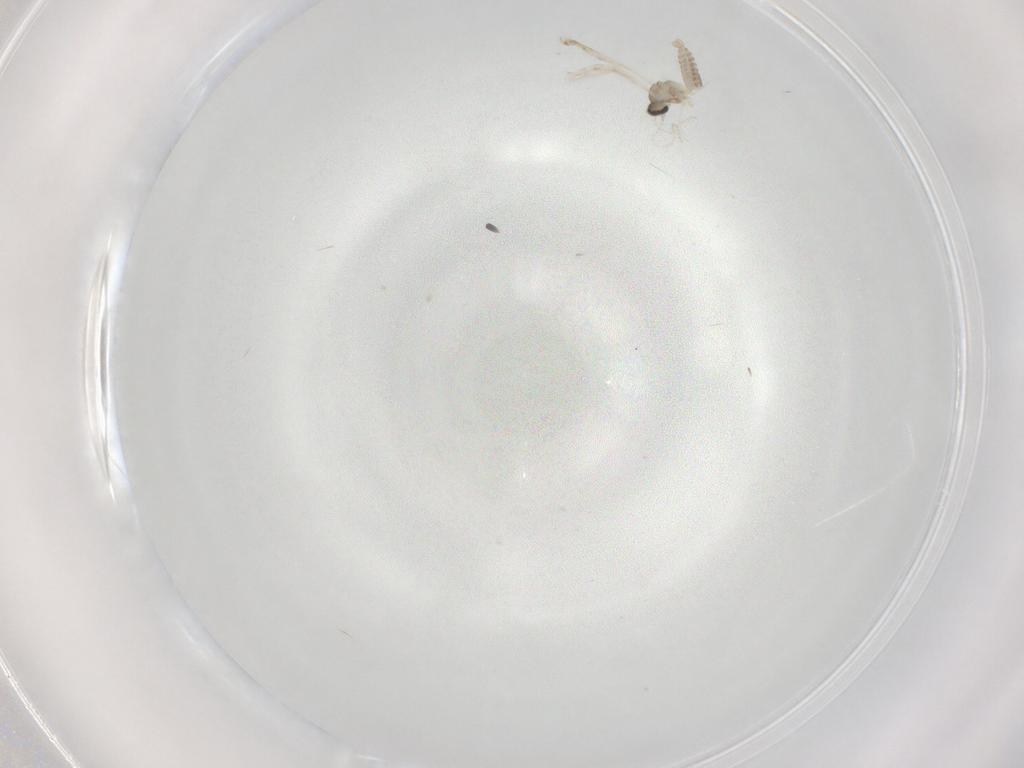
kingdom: Animalia
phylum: Arthropoda
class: Insecta
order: Diptera
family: Cecidomyiidae
